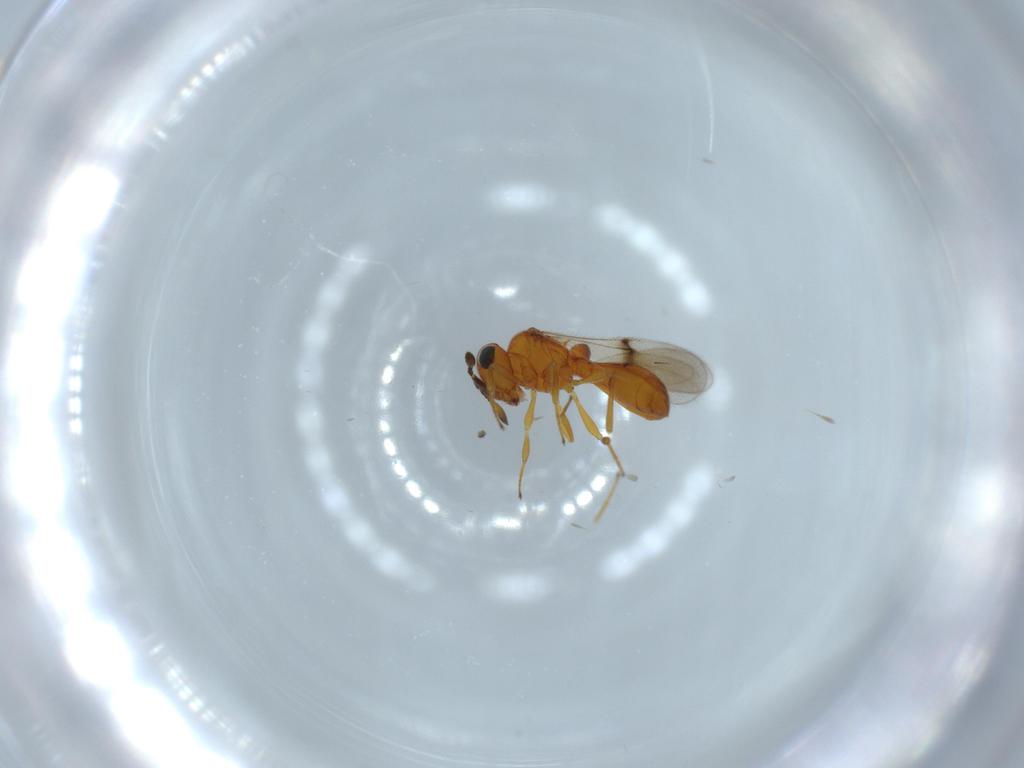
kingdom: Animalia
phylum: Arthropoda
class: Insecta
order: Hymenoptera
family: Scelionidae
